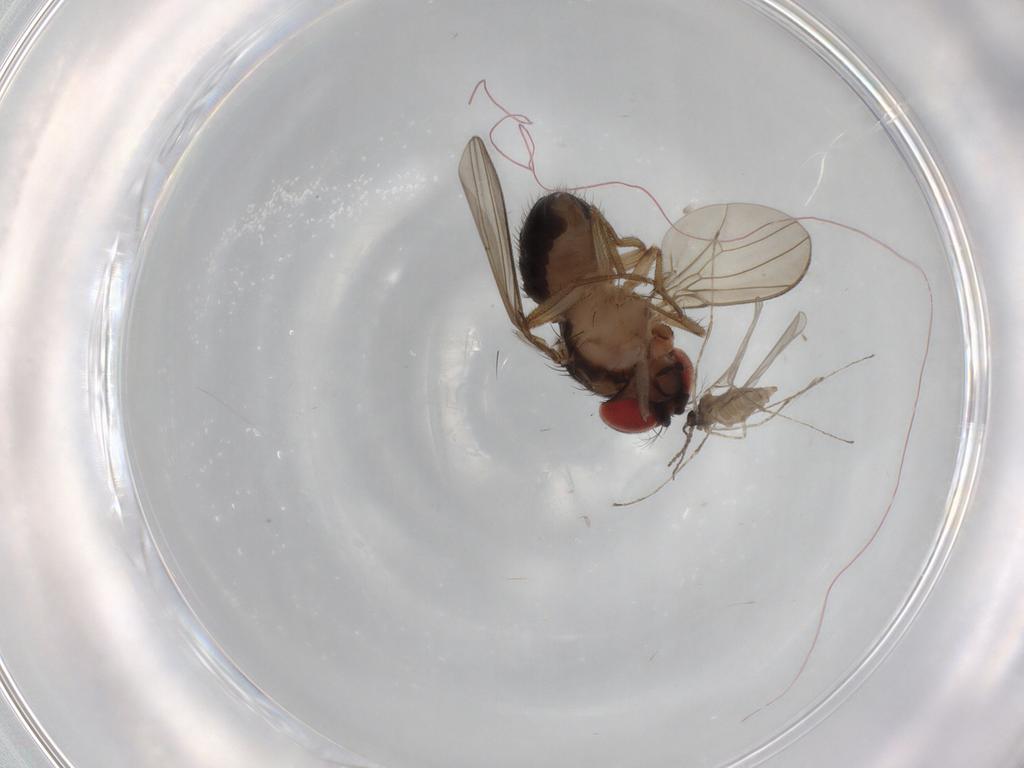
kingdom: Animalia
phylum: Arthropoda
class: Insecta
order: Diptera
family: Cecidomyiidae
